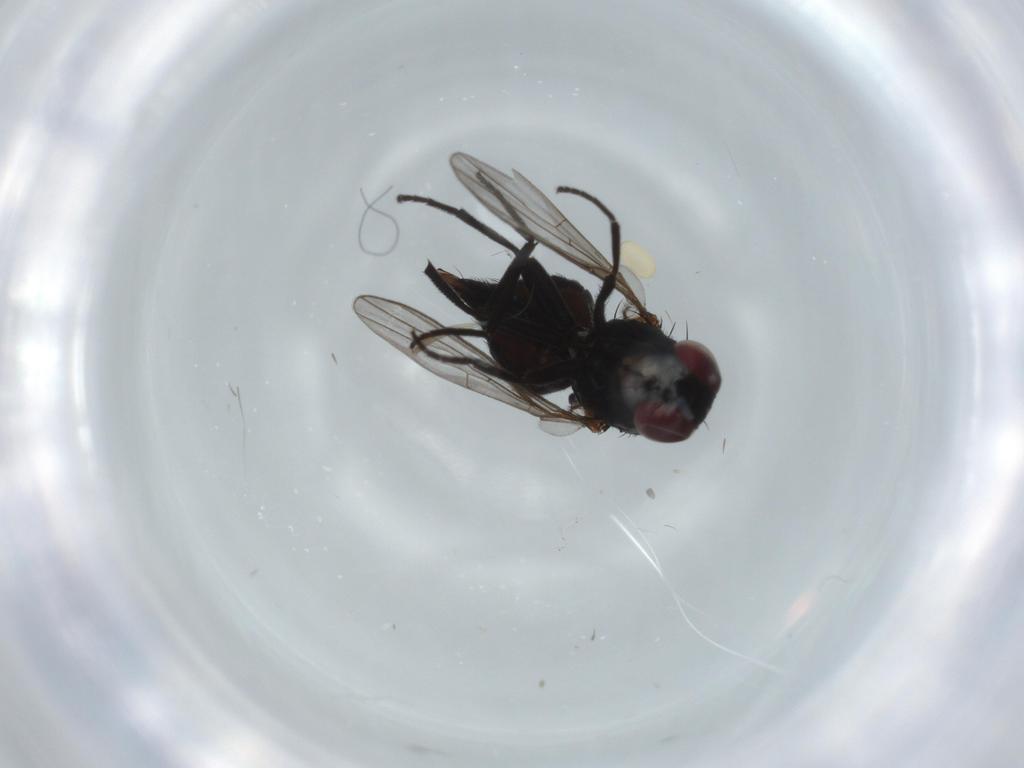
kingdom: Animalia
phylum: Arthropoda
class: Insecta
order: Diptera
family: Agromyzidae
